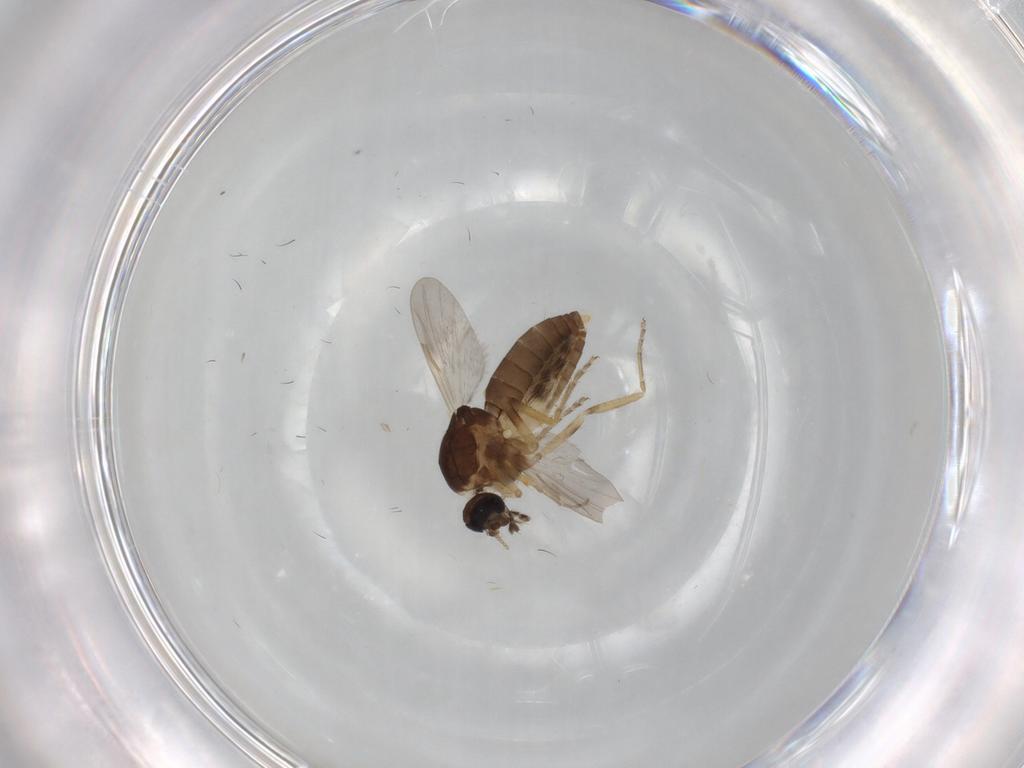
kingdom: Animalia
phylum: Arthropoda
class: Insecta
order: Diptera
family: Ceratopogonidae
